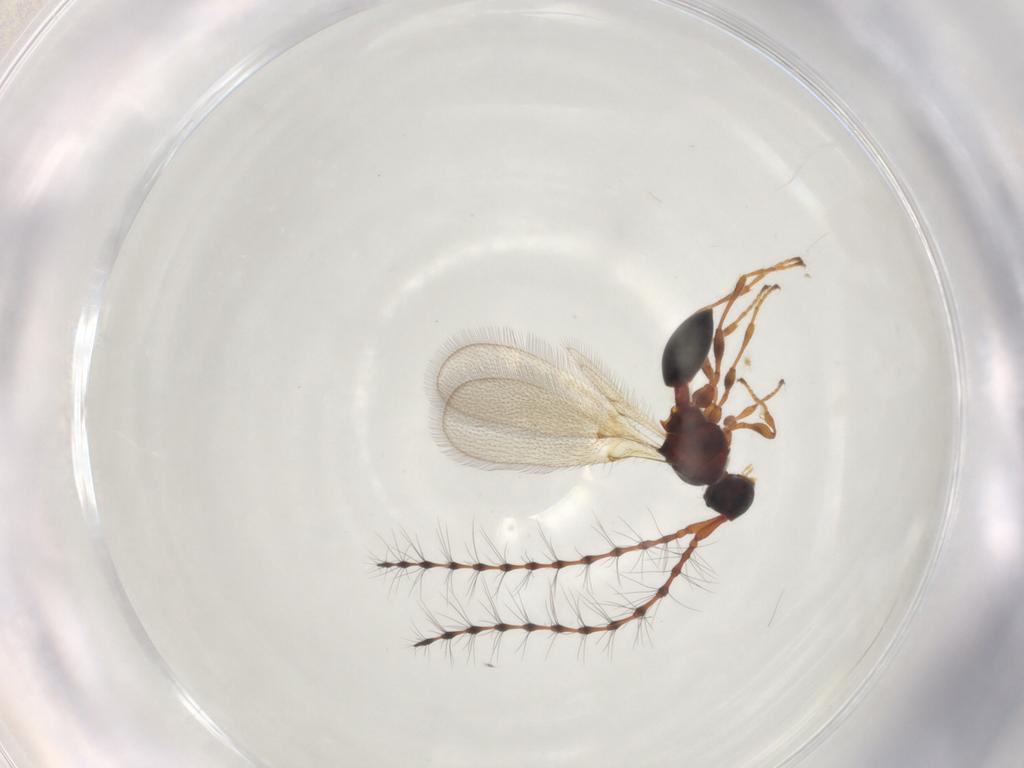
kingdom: Animalia
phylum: Arthropoda
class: Insecta
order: Hymenoptera
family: Diapriidae
